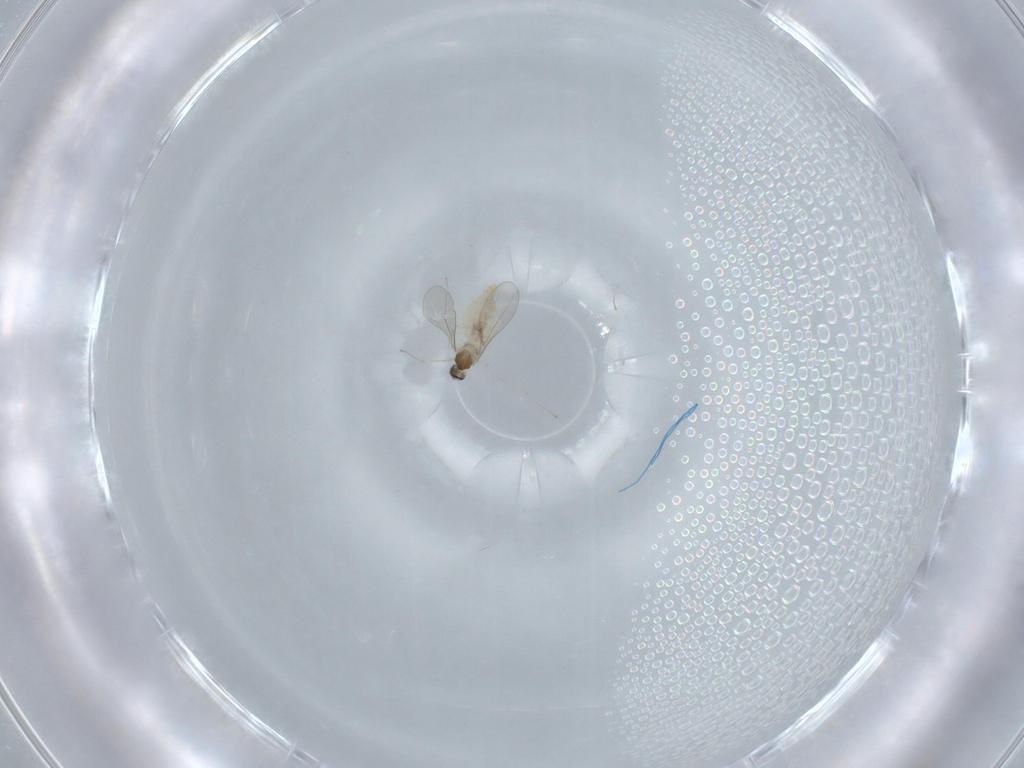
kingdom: Animalia
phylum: Arthropoda
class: Insecta
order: Diptera
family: Cecidomyiidae
